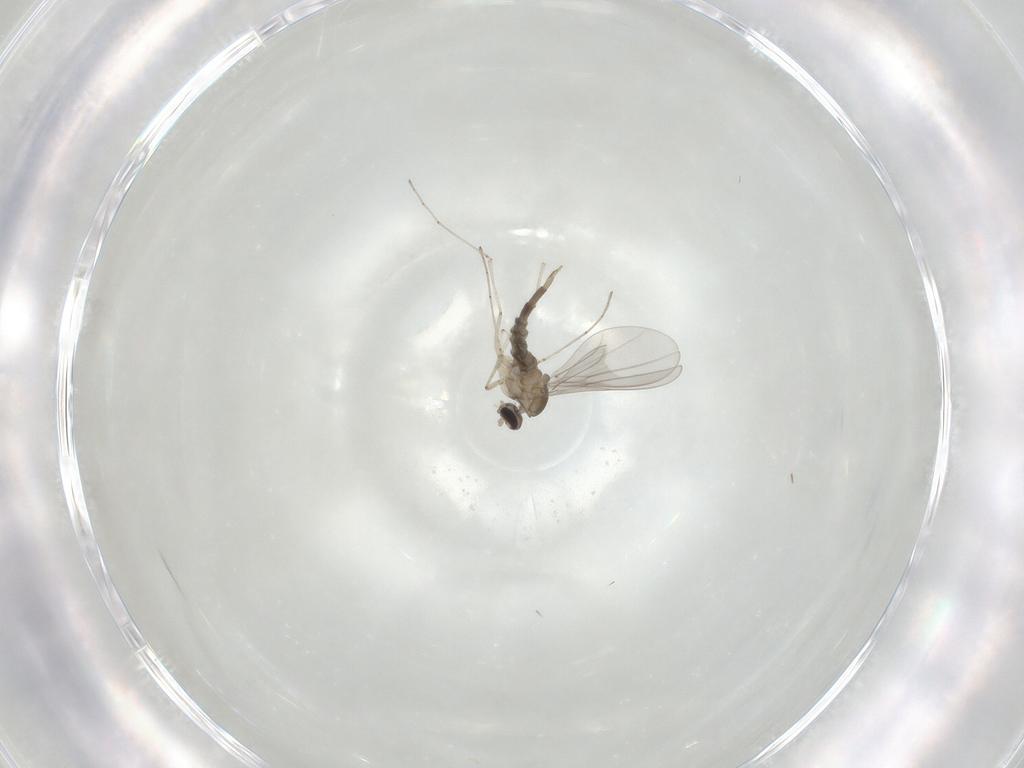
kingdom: Animalia
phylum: Arthropoda
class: Insecta
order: Diptera
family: Cecidomyiidae
